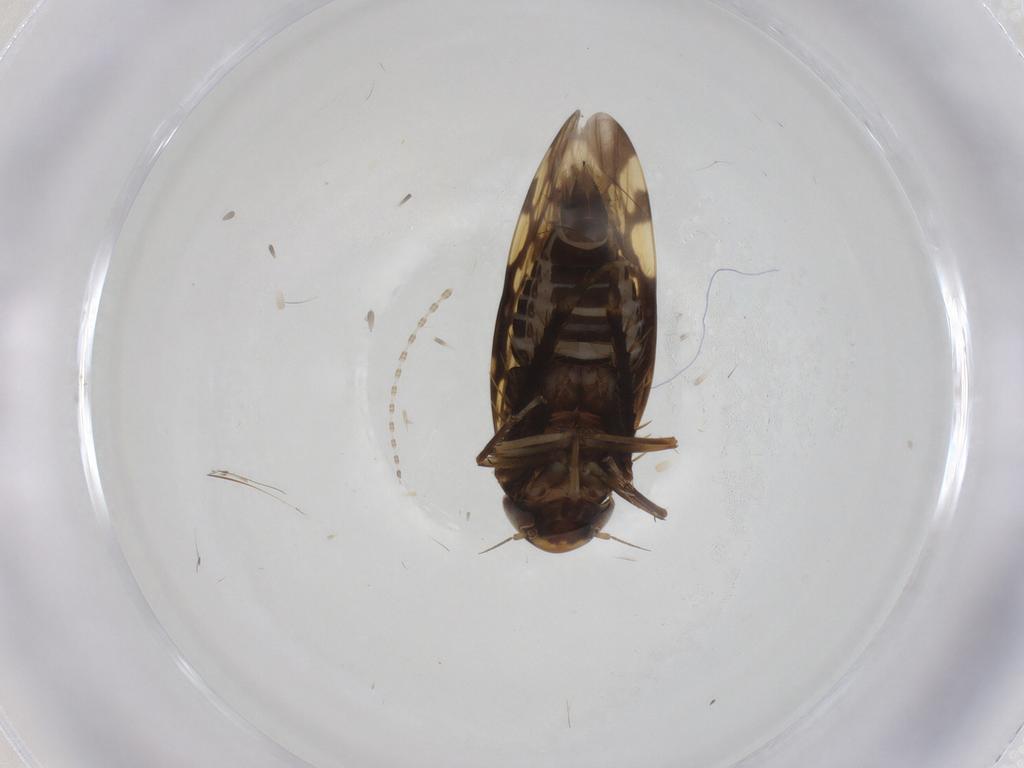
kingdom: Animalia
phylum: Arthropoda
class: Insecta
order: Hemiptera
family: Cicadellidae
